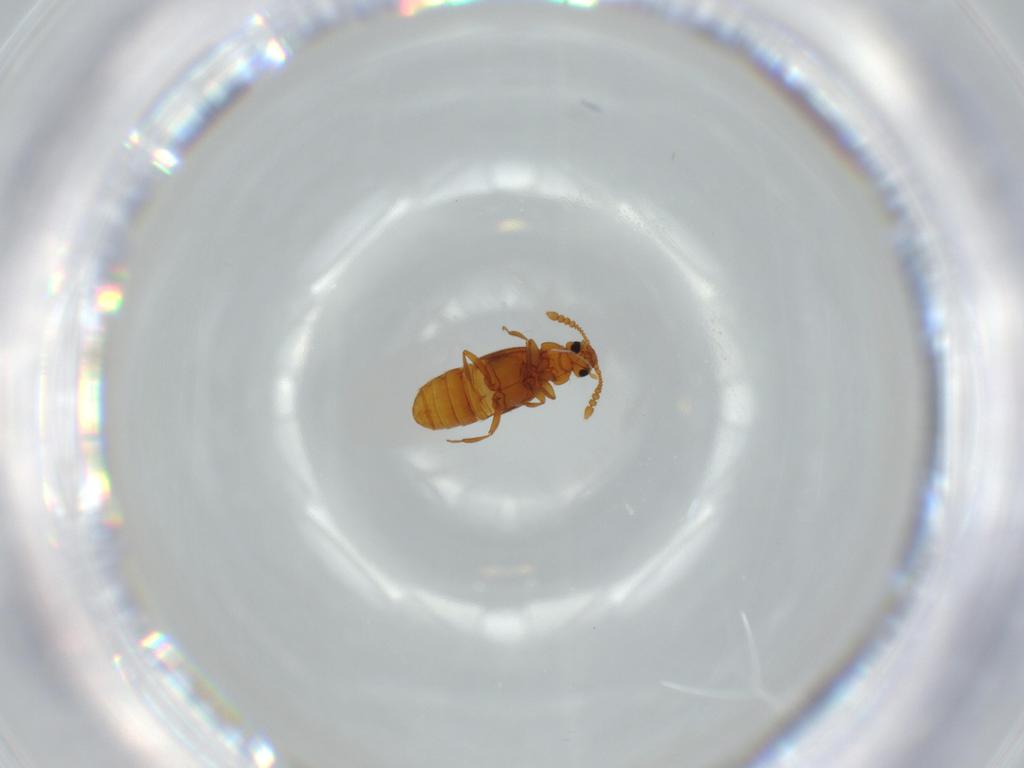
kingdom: Animalia
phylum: Arthropoda
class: Insecta
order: Coleoptera
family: Staphylinidae
